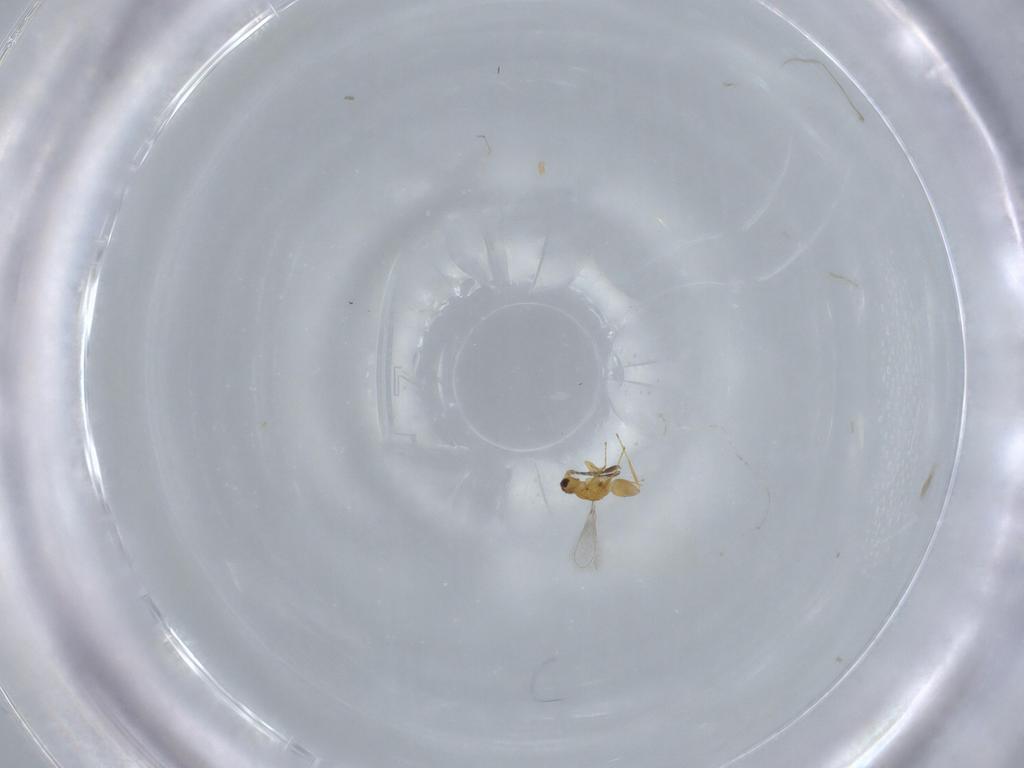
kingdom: Animalia
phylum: Arthropoda
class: Insecta
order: Hymenoptera
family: Mymaridae
